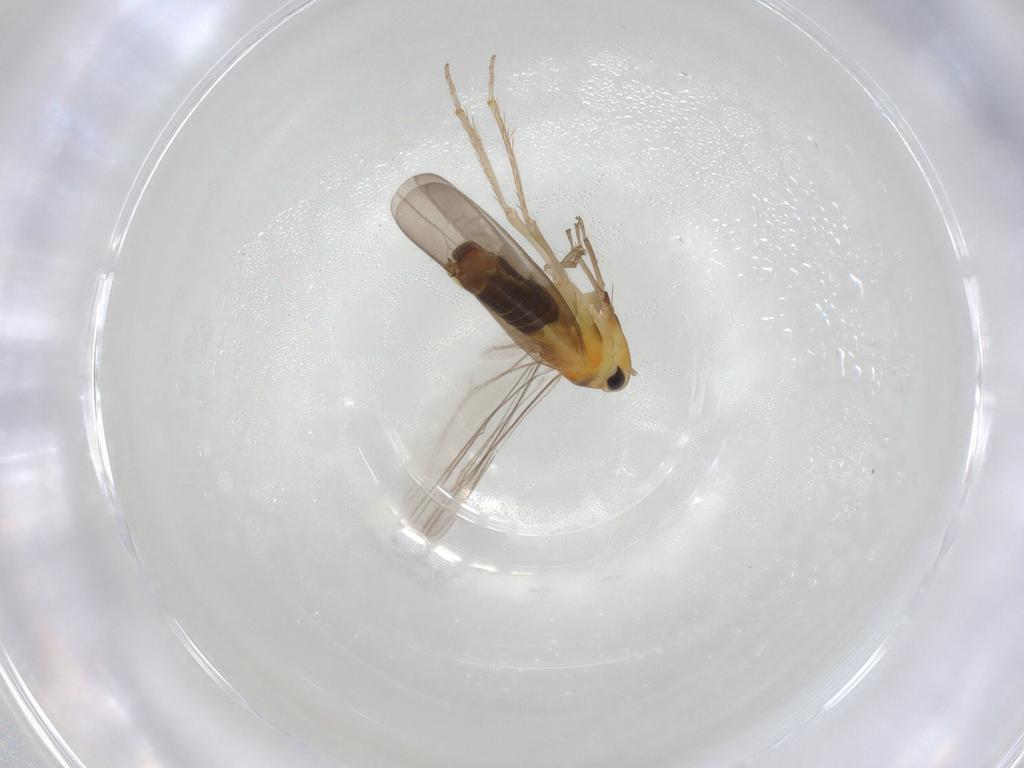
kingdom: Animalia
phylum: Arthropoda
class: Insecta
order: Hemiptera
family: Cicadellidae
